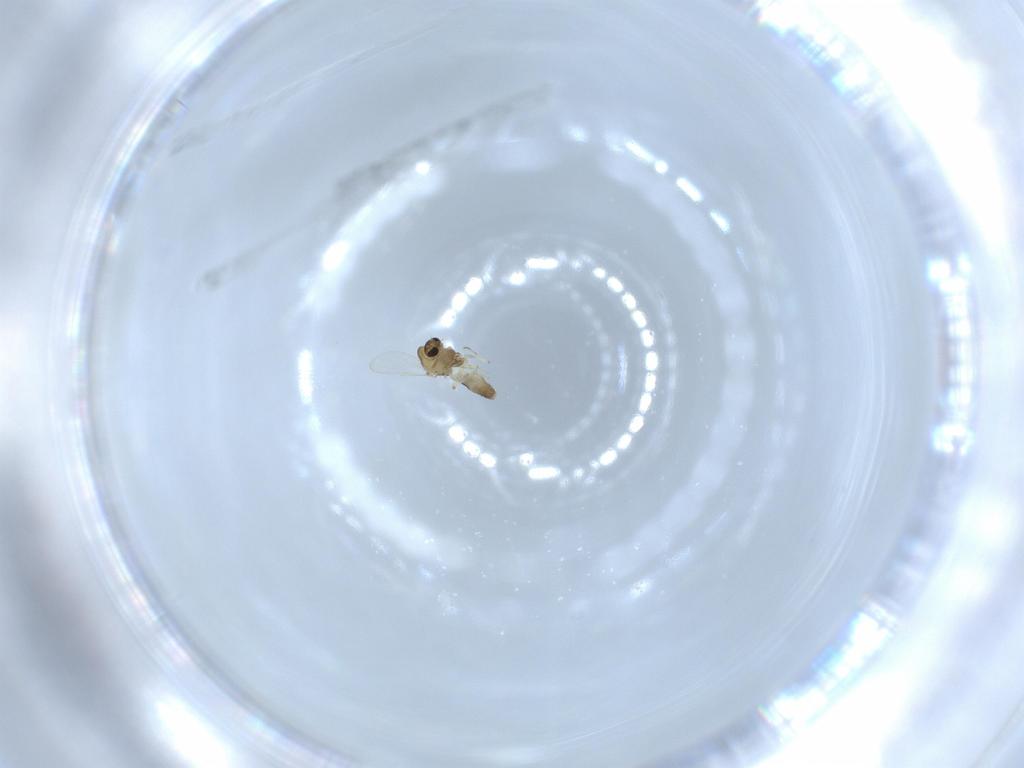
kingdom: Animalia
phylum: Arthropoda
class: Insecta
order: Diptera
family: Chironomidae
